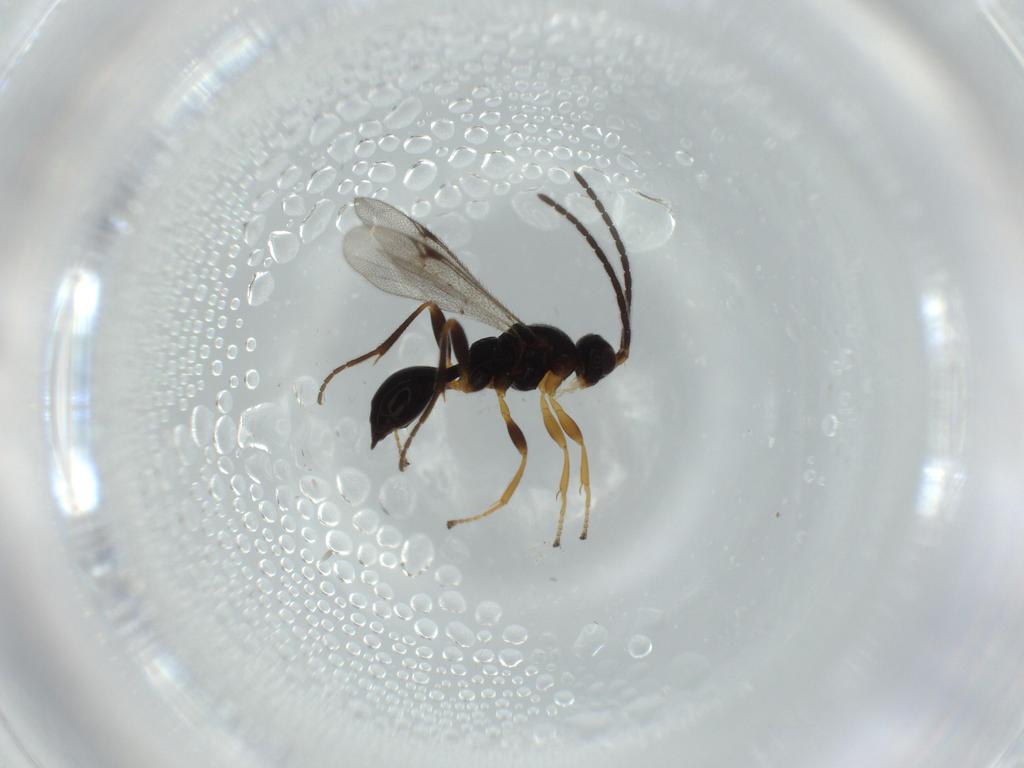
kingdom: Animalia
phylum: Arthropoda
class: Insecta
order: Hymenoptera
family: Proctotrupidae
